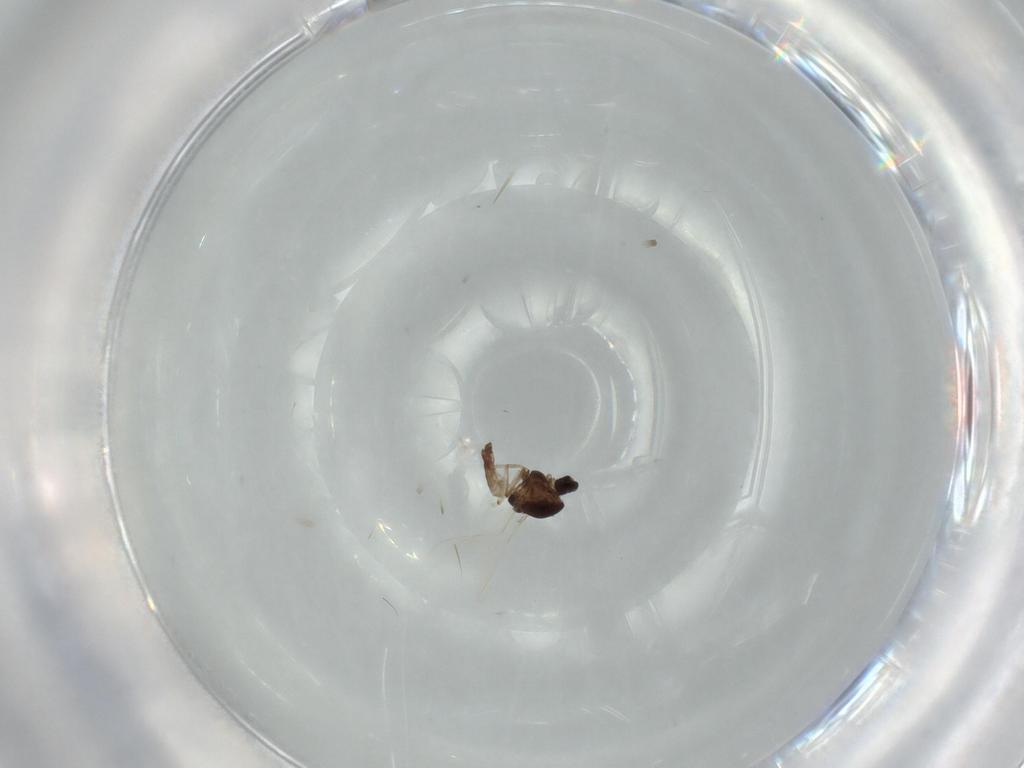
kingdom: Animalia
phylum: Arthropoda
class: Insecta
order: Diptera
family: Chironomidae
